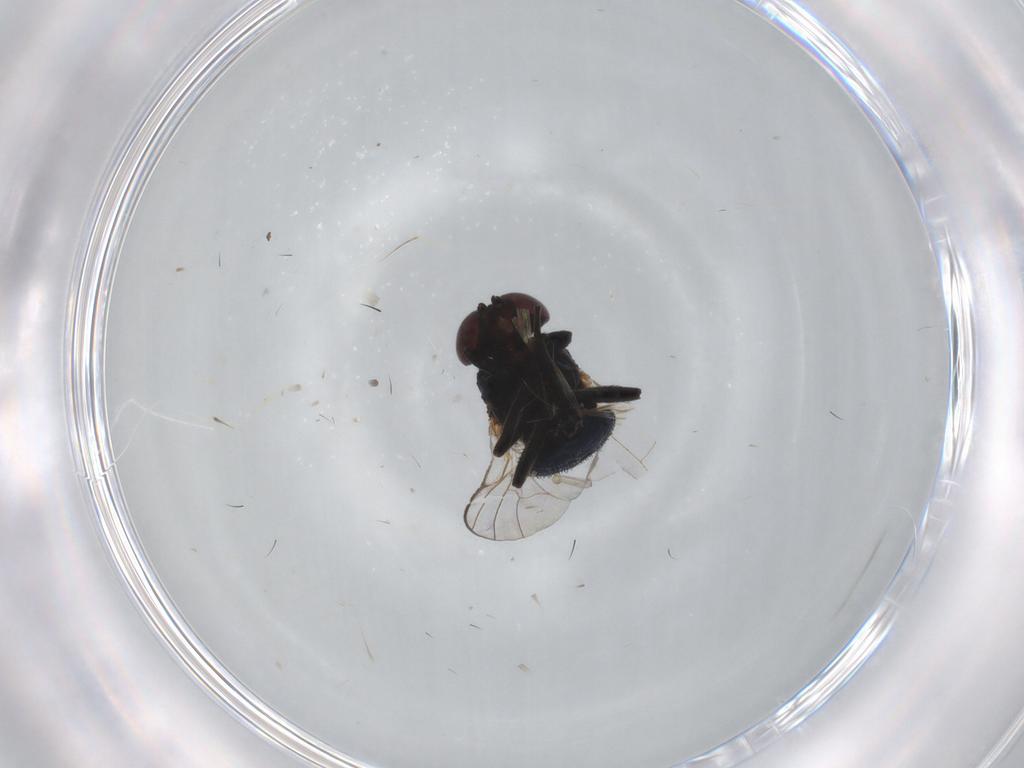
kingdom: Animalia
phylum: Arthropoda
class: Insecta
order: Diptera
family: Agromyzidae
